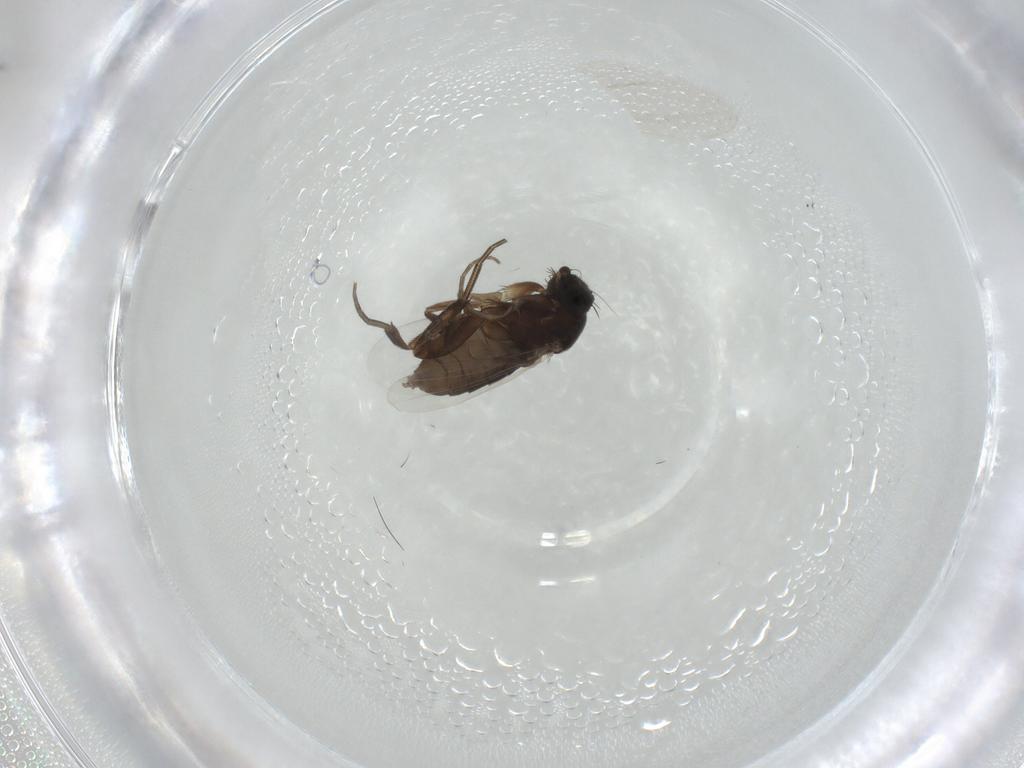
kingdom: Animalia
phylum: Arthropoda
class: Insecta
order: Diptera
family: Phoridae
